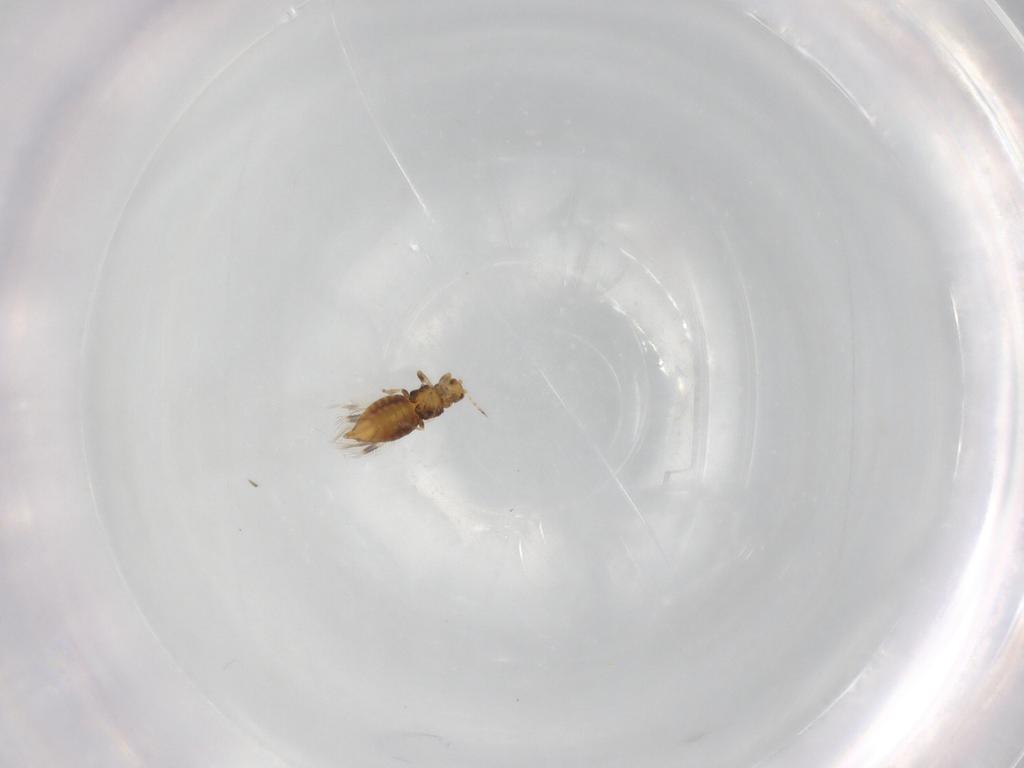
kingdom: Animalia
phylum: Arthropoda
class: Insecta
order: Thysanoptera
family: Thripidae
